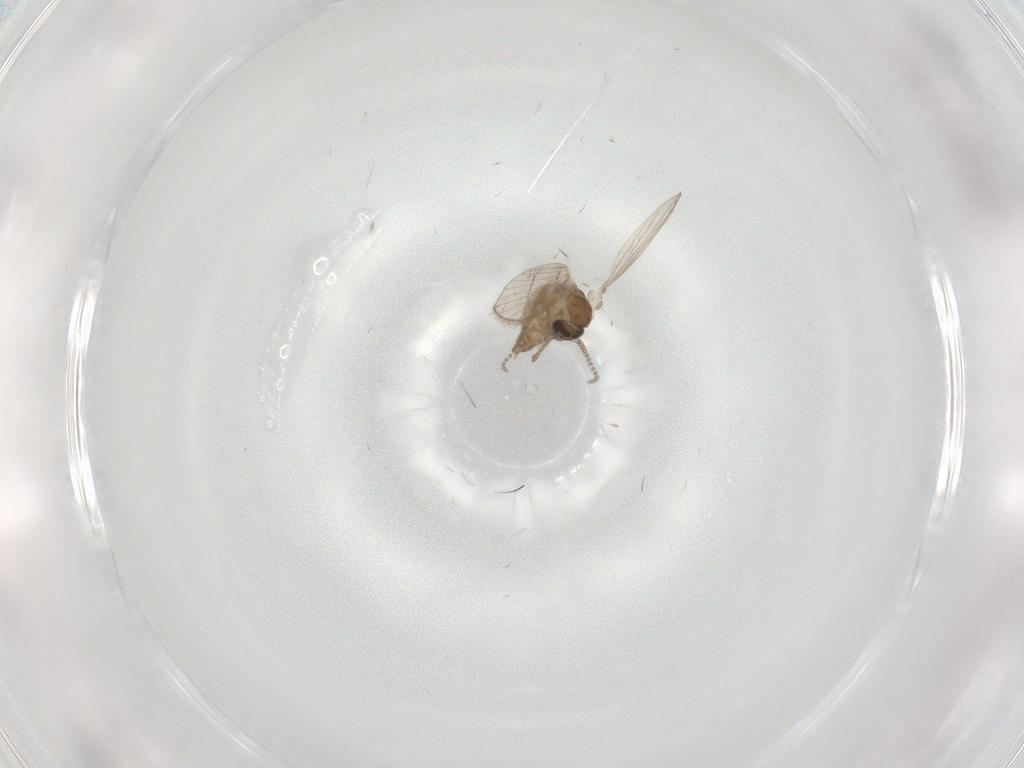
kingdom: Animalia
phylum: Arthropoda
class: Insecta
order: Diptera
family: Psychodidae
